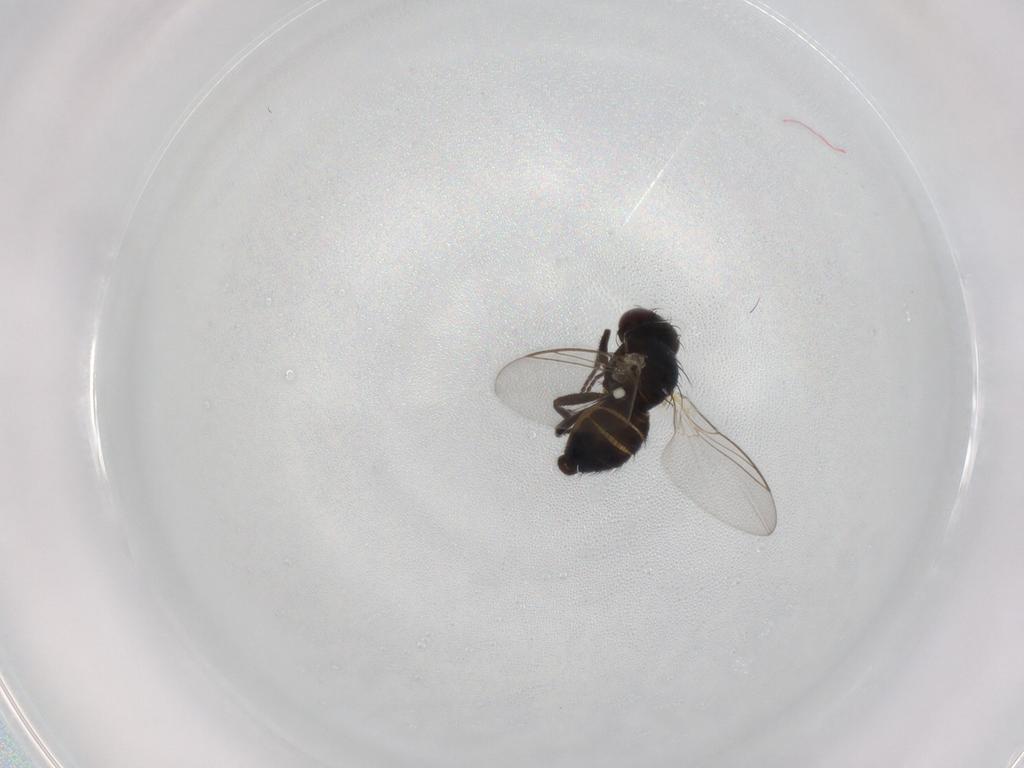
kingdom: Animalia
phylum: Arthropoda
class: Insecta
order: Diptera
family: Agromyzidae
